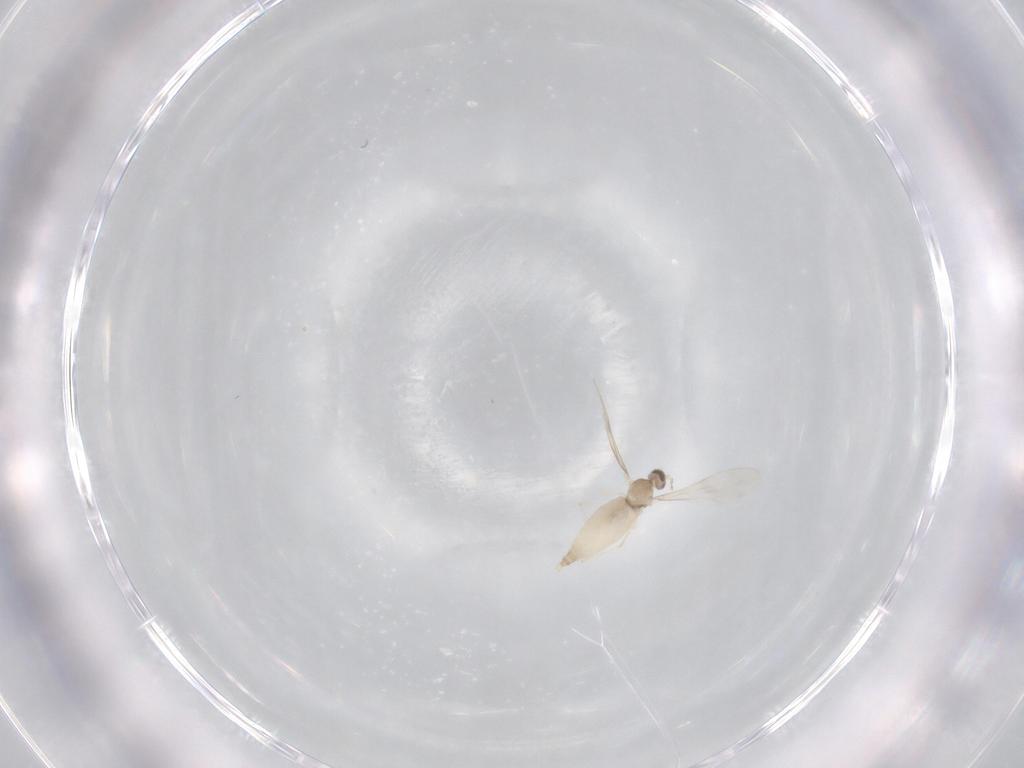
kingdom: Animalia
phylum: Arthropoda
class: Insecta
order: Diptera
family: Cecidomyiidae
